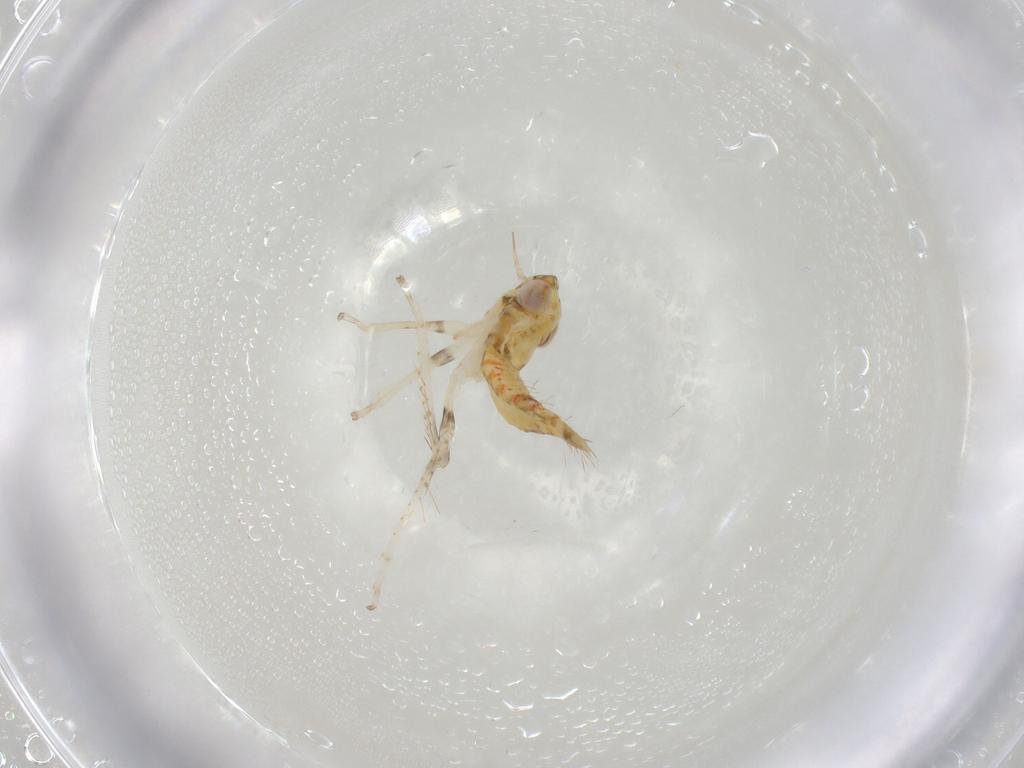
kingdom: Animalia
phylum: Arthropoda
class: Insecta
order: Hemiptera
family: Cicadellidae
